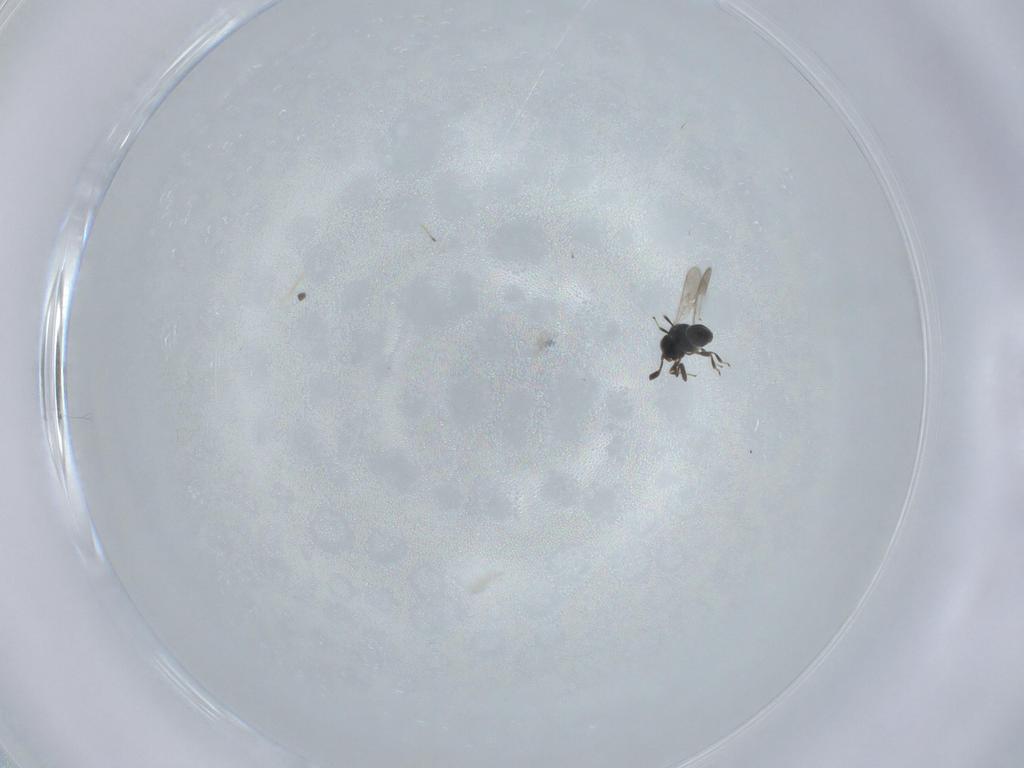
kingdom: Animalia
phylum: Arthropoda
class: Insecta
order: Hymenoptera
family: Scelionidae
